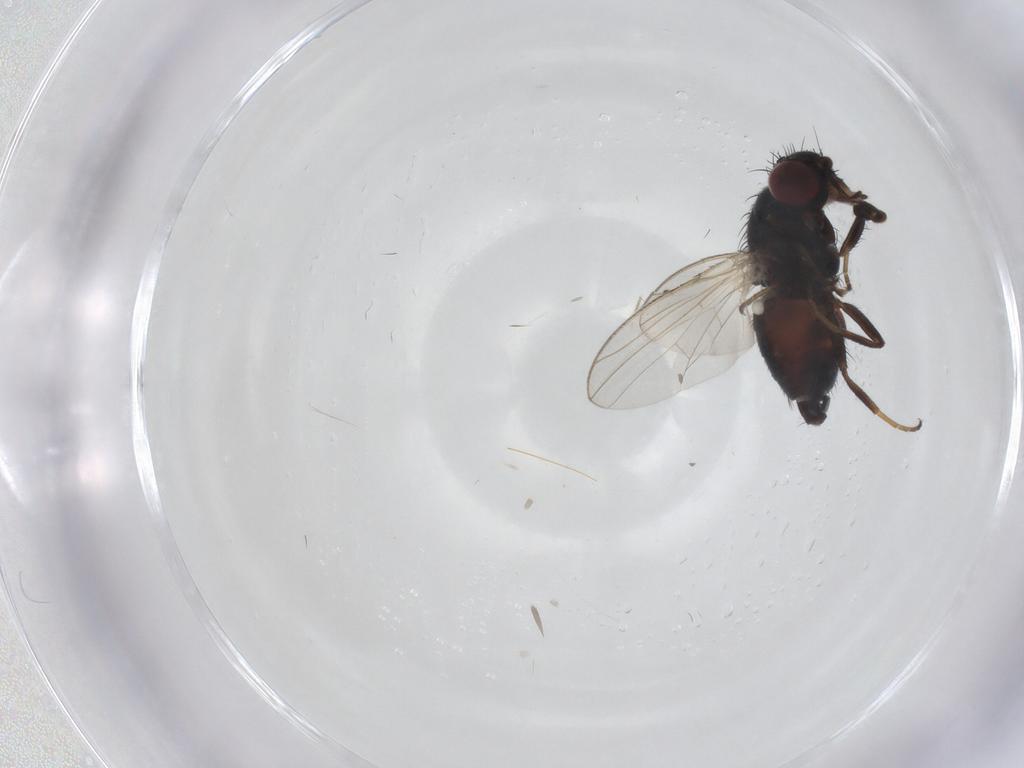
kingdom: Animalia
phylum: Arthropoda
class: Insecta
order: Diptera
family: Carnidae
